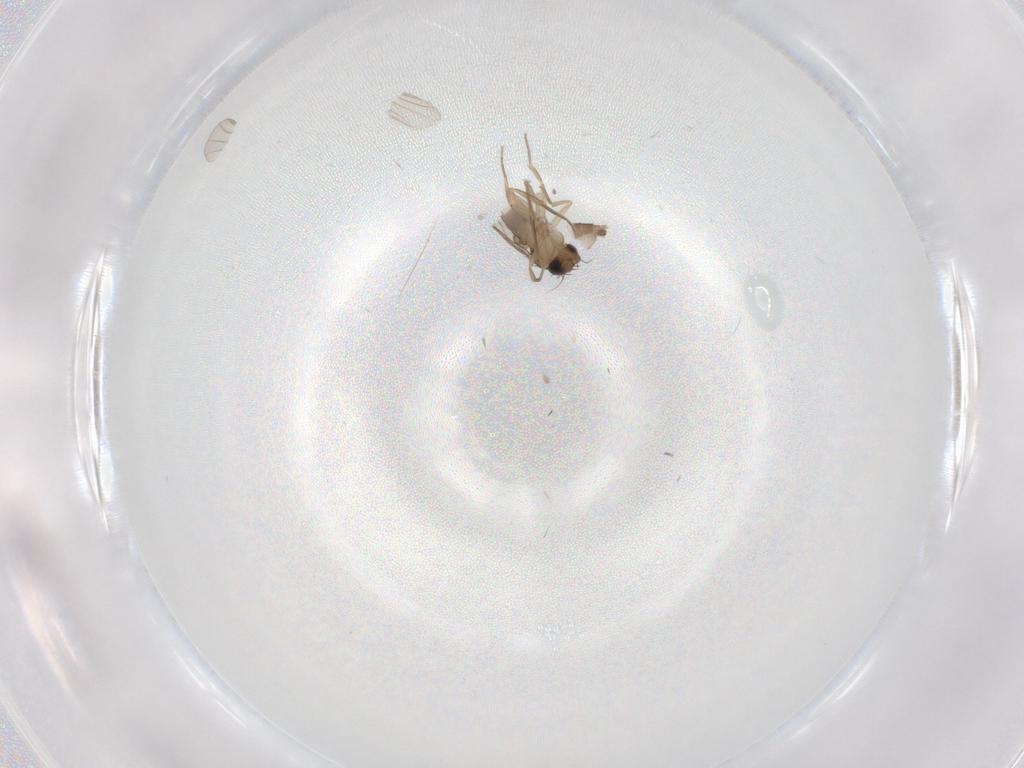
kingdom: Animalia
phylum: Arthropoda
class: Insecta
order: Diptera
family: Phoridae
